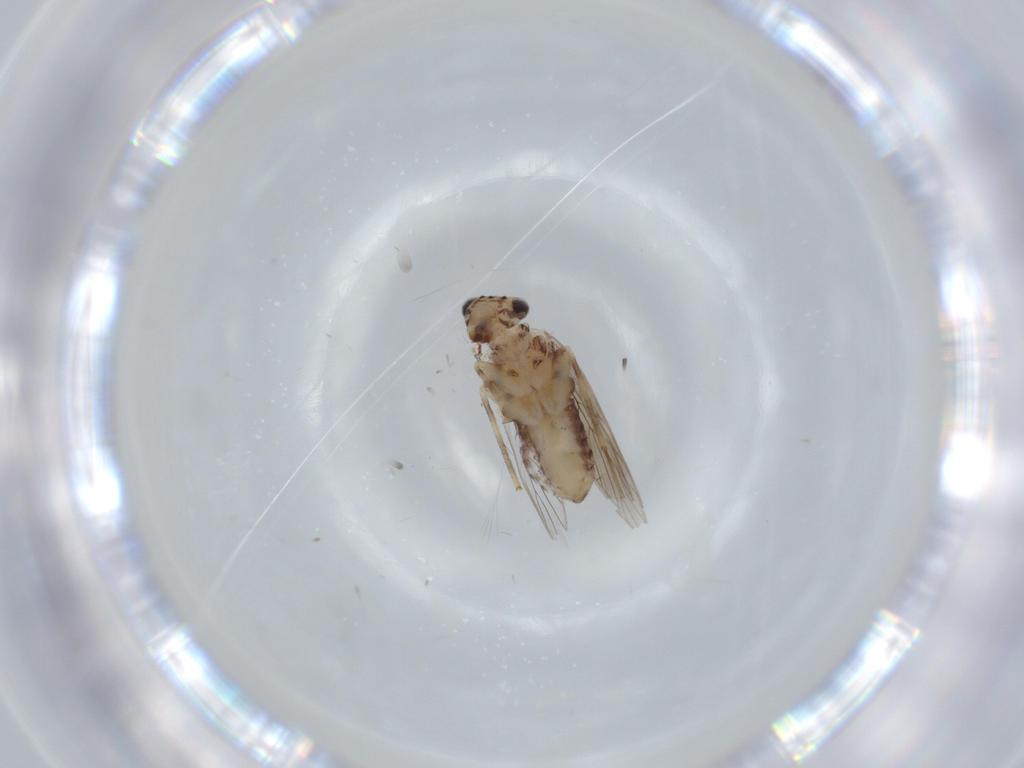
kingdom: Animalia
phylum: Arthropoda
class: Insecta
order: Psocodea
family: Lepidopsocidae
